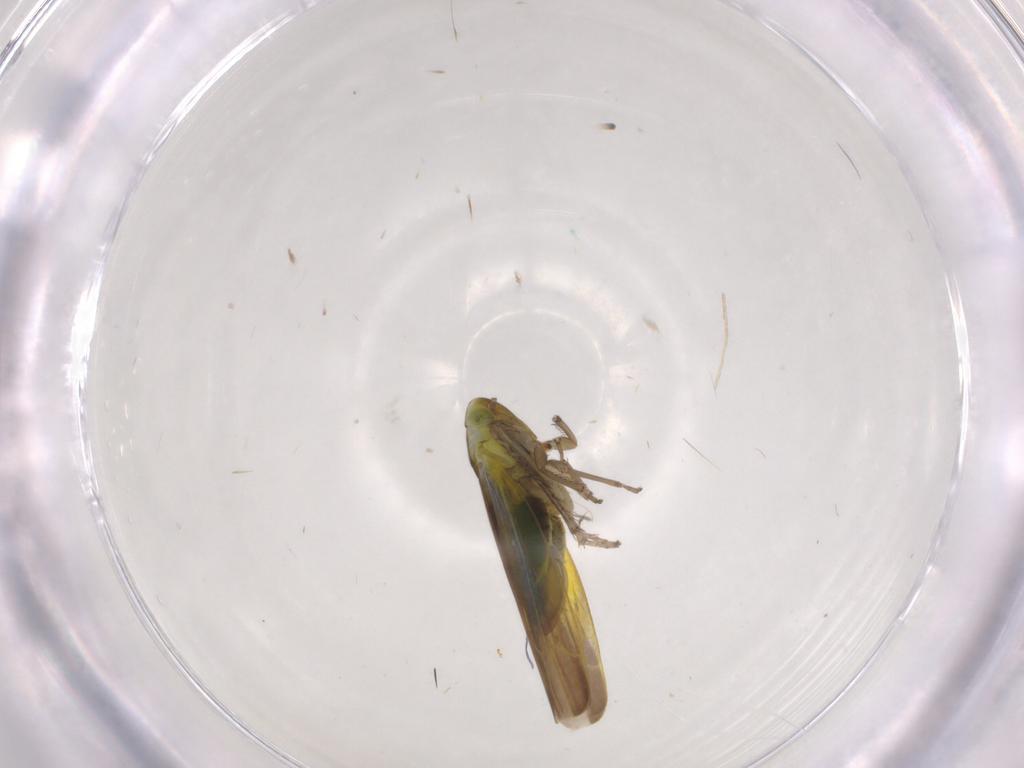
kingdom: Animalia
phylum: Arthropoda
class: Insecta
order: Hemiptera
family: Cicadellidae
